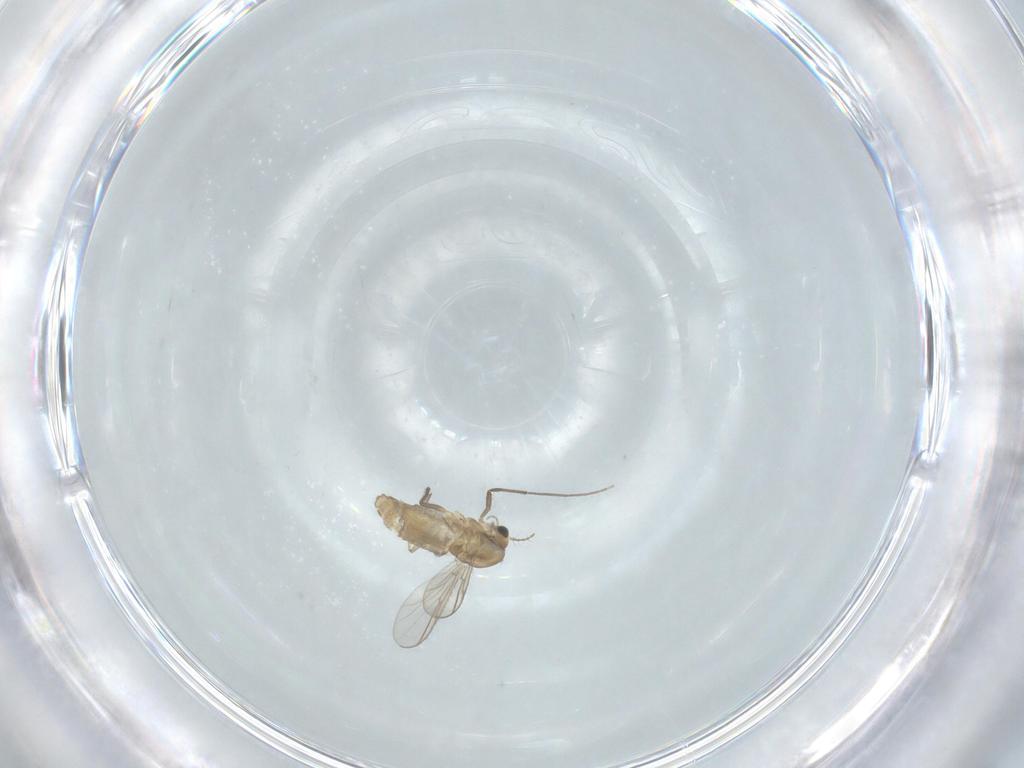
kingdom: Animalia
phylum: Arthropoda
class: Insecta
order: Diptera
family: Chironomidae
